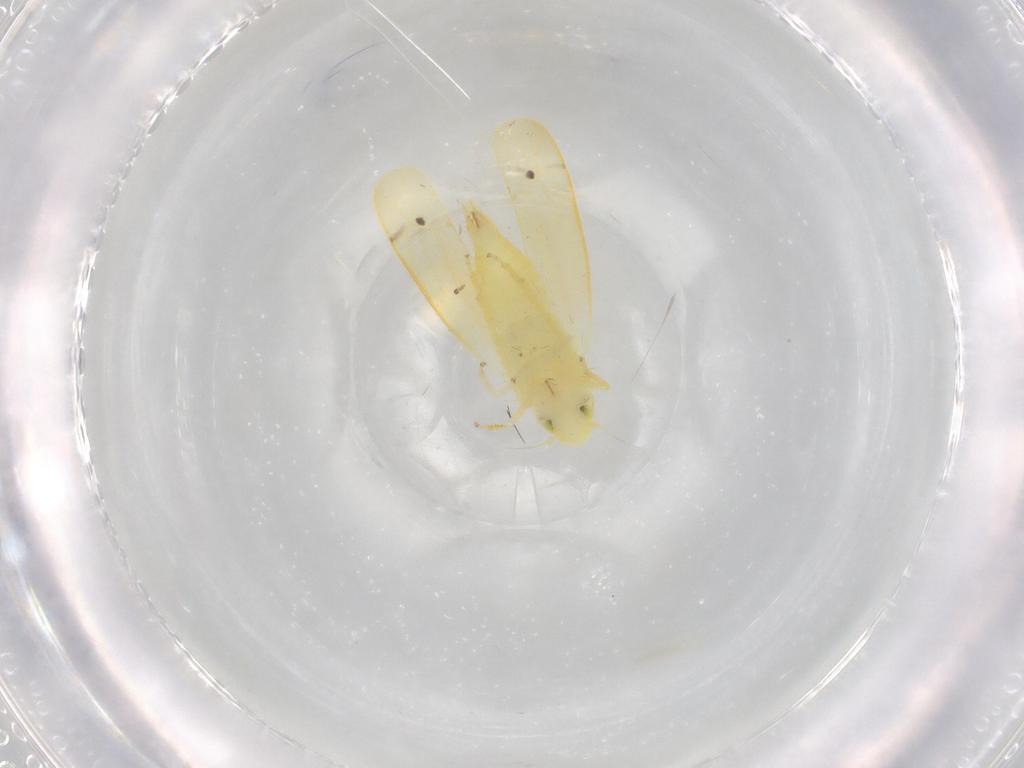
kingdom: Animalia
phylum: Arthropoda
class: Insecta
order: Hemiptera
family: Cicadellidae
